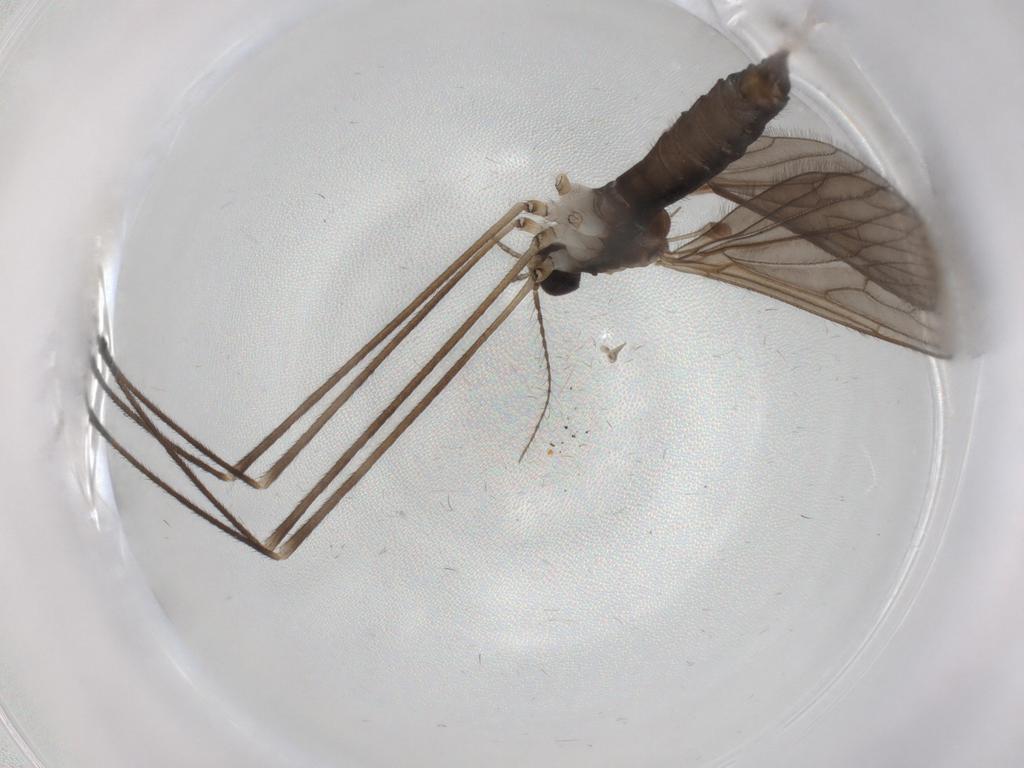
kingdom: Animalia
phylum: Arthropoda
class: Insecta
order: Diptera
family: Limoniidae
